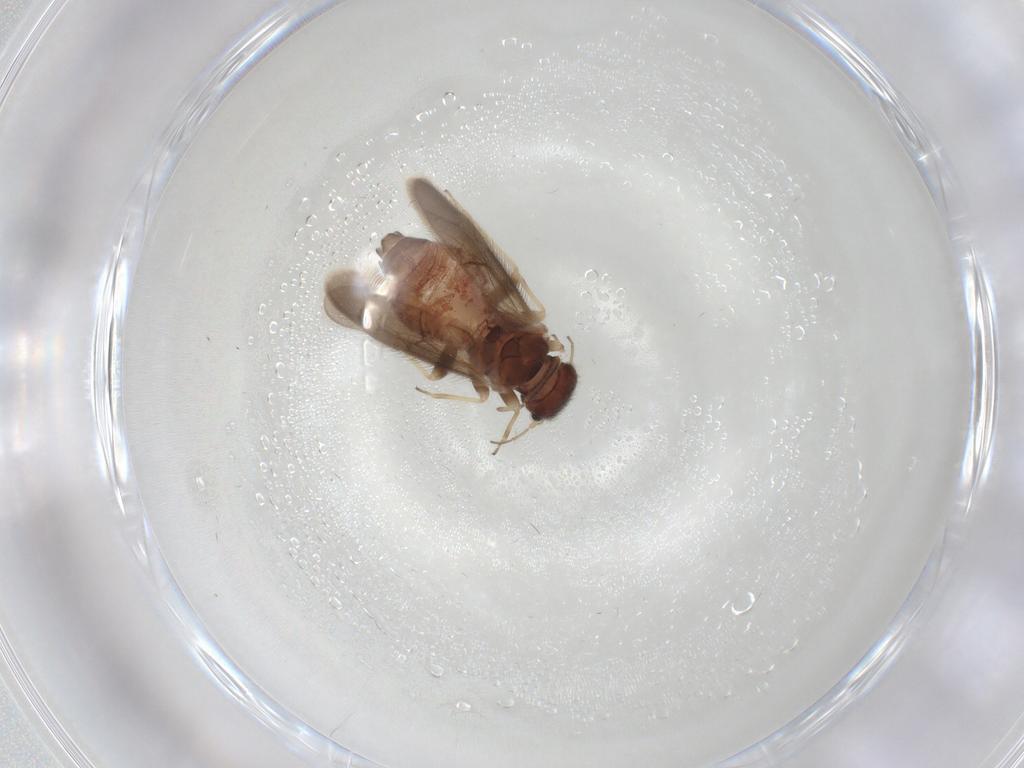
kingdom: Animalia
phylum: Arthropoda
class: Insecta
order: Psocodea
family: Archipsocidae
